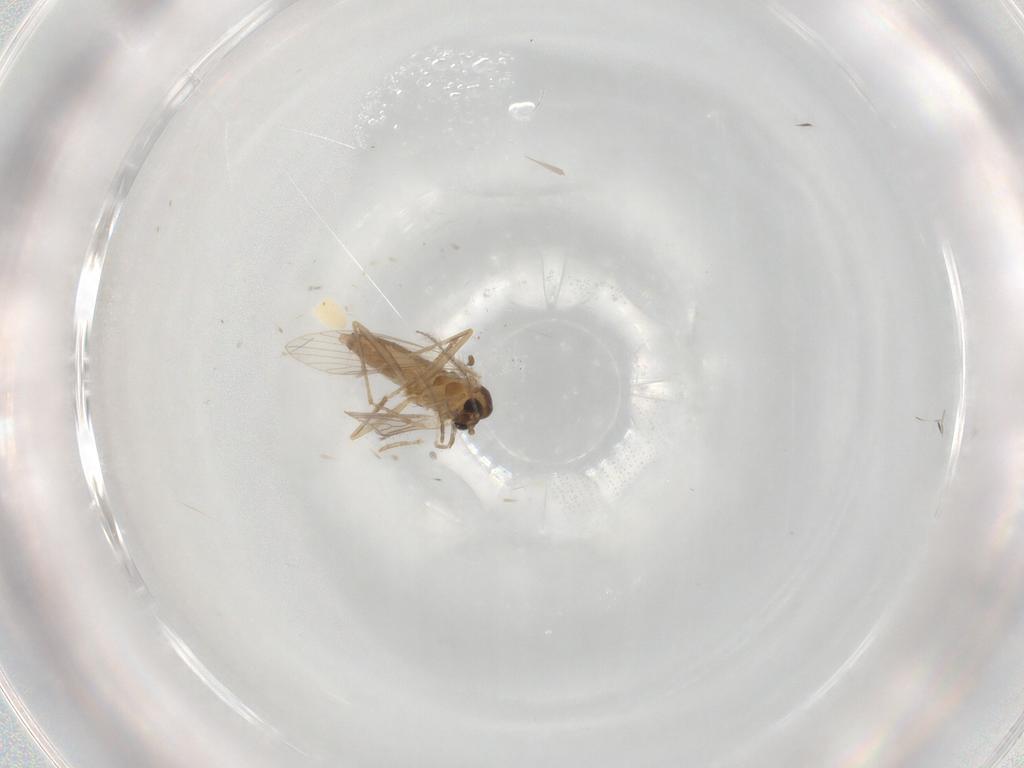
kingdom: Animalia
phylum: Arthropoda
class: Insecta
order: Diptera
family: Psychodidae
